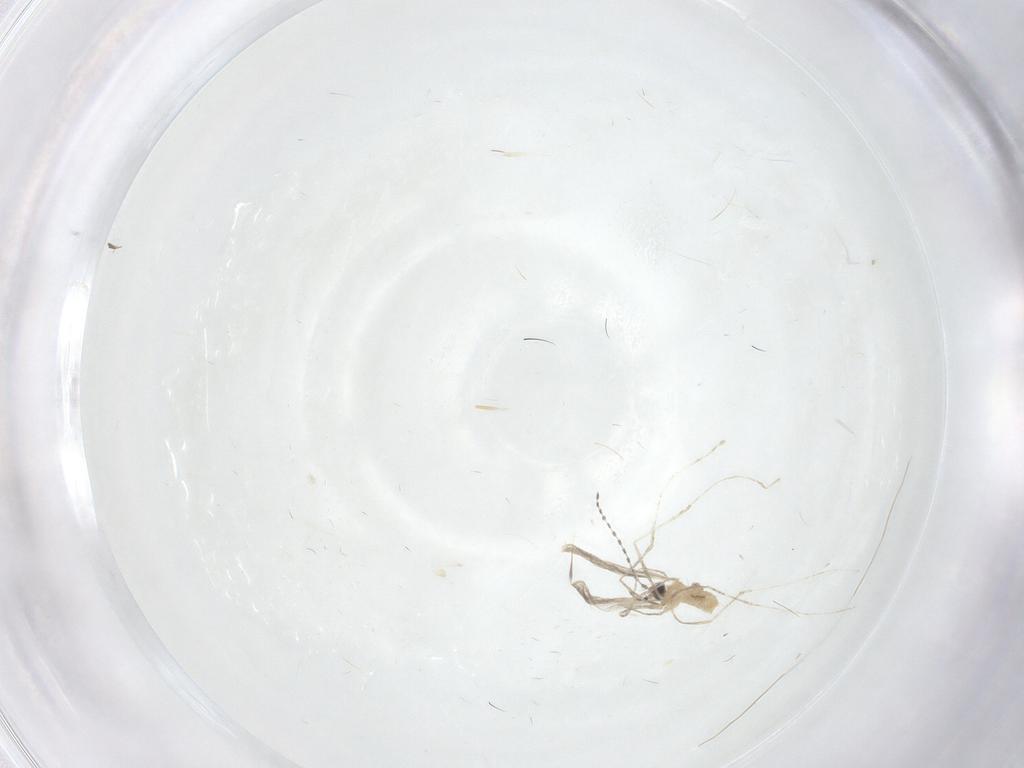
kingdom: Animalia
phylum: Arthropoda
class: Insecta
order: Diptera
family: Cecidomyiidae
